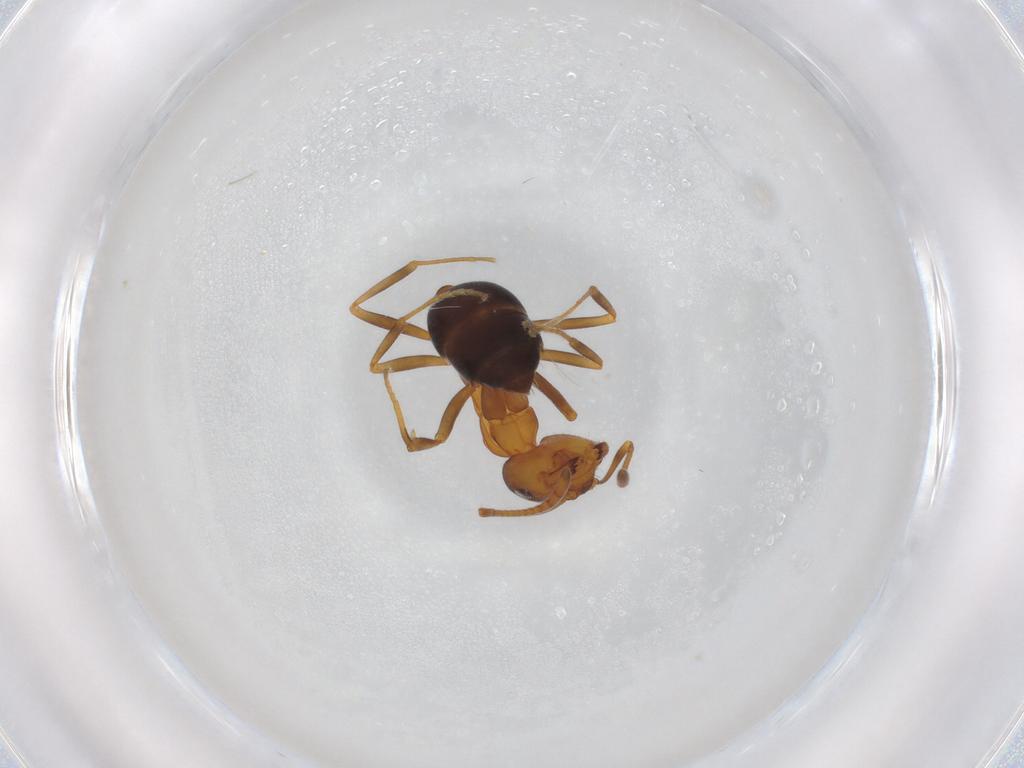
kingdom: Animalia
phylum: Arthropoda
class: Insecta
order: Hymenoptera
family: Formicidae
